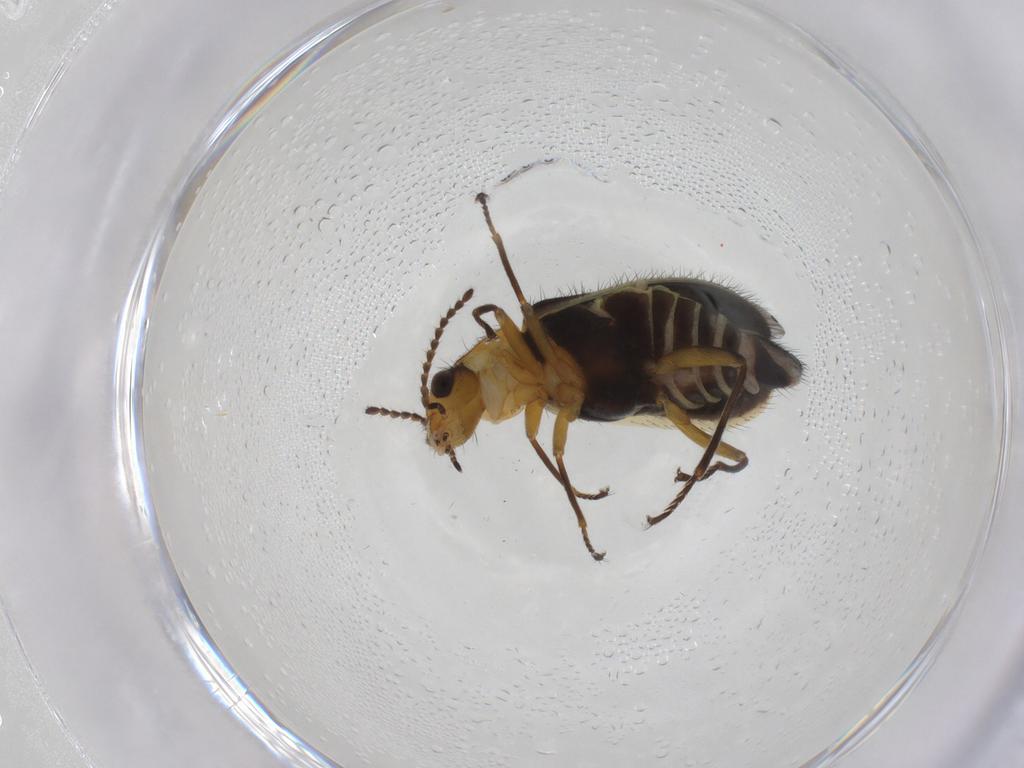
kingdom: Animalia
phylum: Arthropoda
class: Insecta
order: Coleoptera
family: Melyridae
